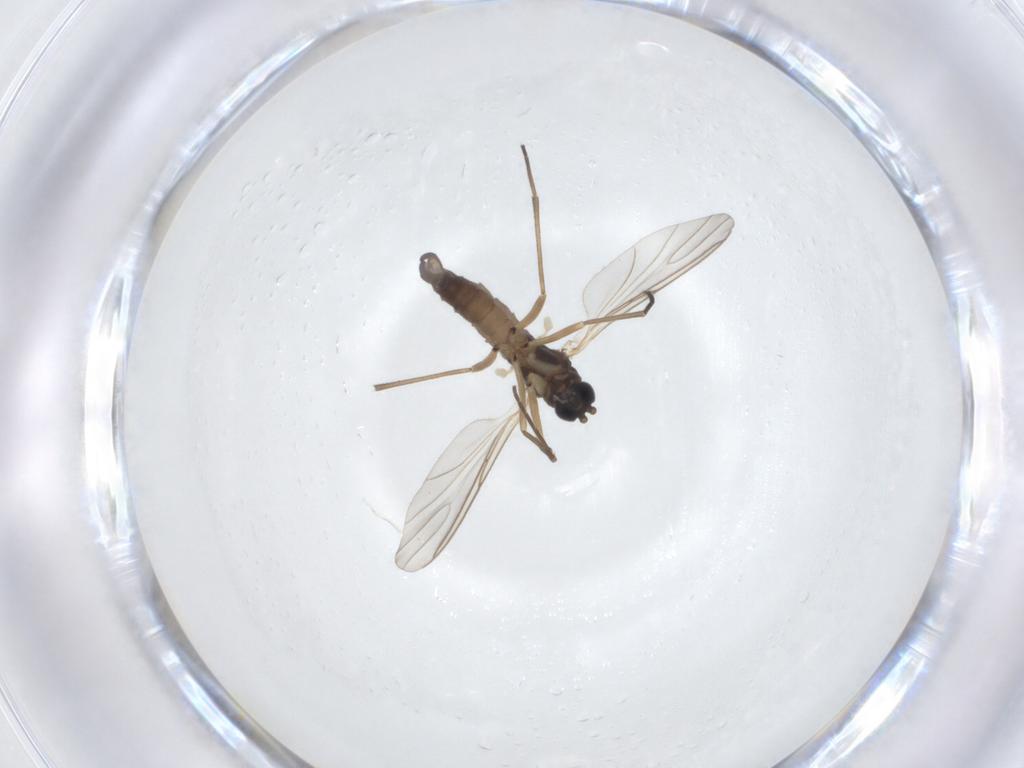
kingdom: Animalia
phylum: Arthropoda
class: Insecta
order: Diptera
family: Sciaridae
